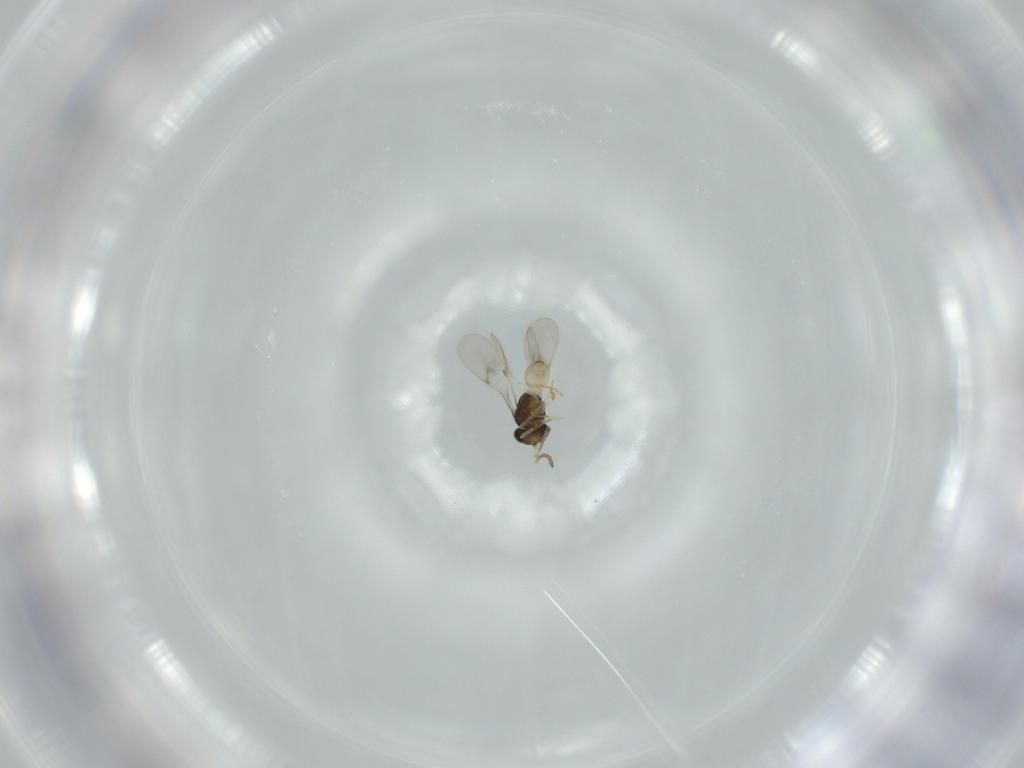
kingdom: Animalia
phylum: Arthropoda
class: Insecta
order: Hymenoptera
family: Scelionidae
